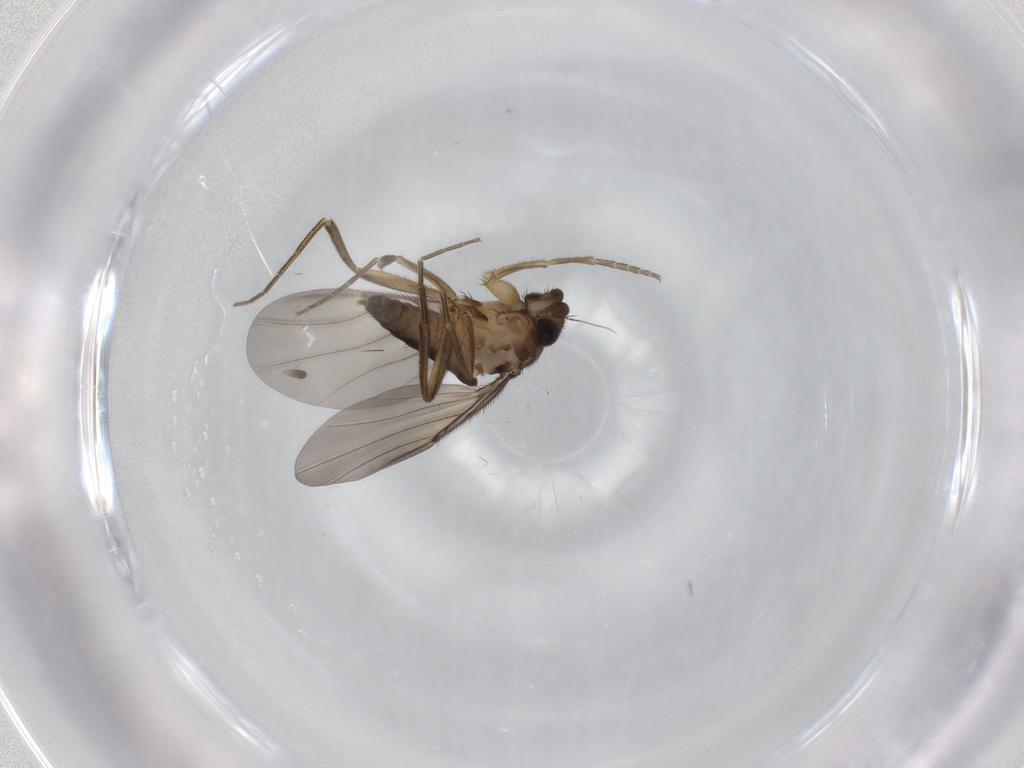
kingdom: Animalia
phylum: Arthropoda
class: Insecta
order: Diptera
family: Phoridae
